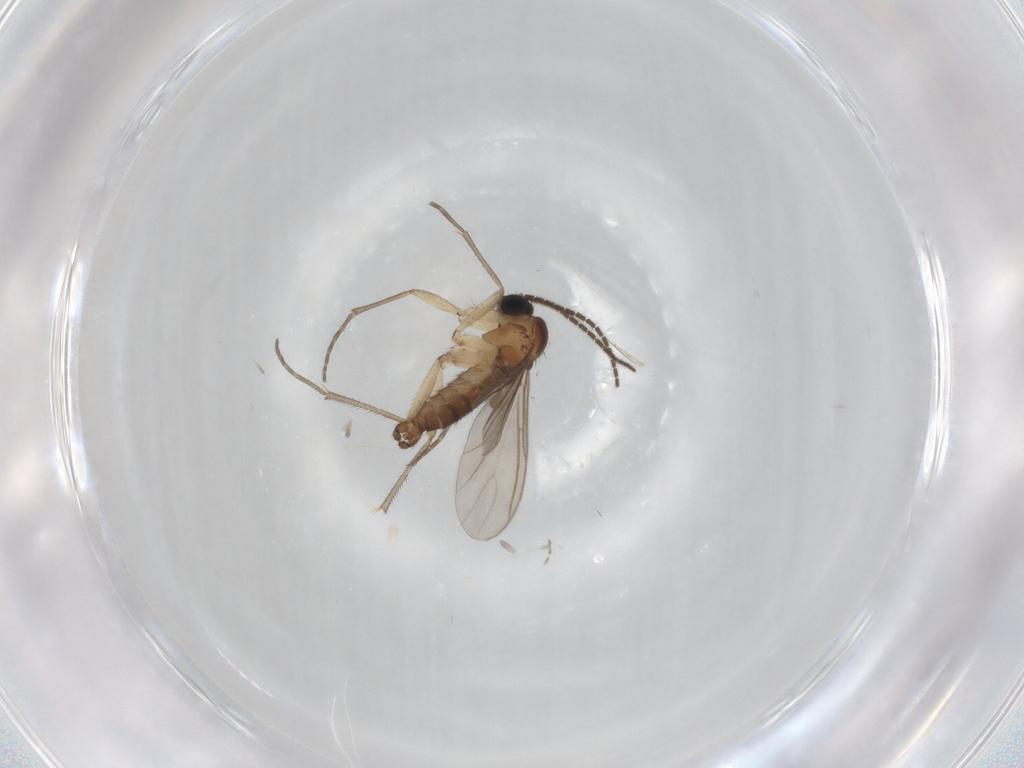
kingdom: Animalia
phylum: Arthropoda
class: Insecta
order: Diptera
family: Sciaridae
